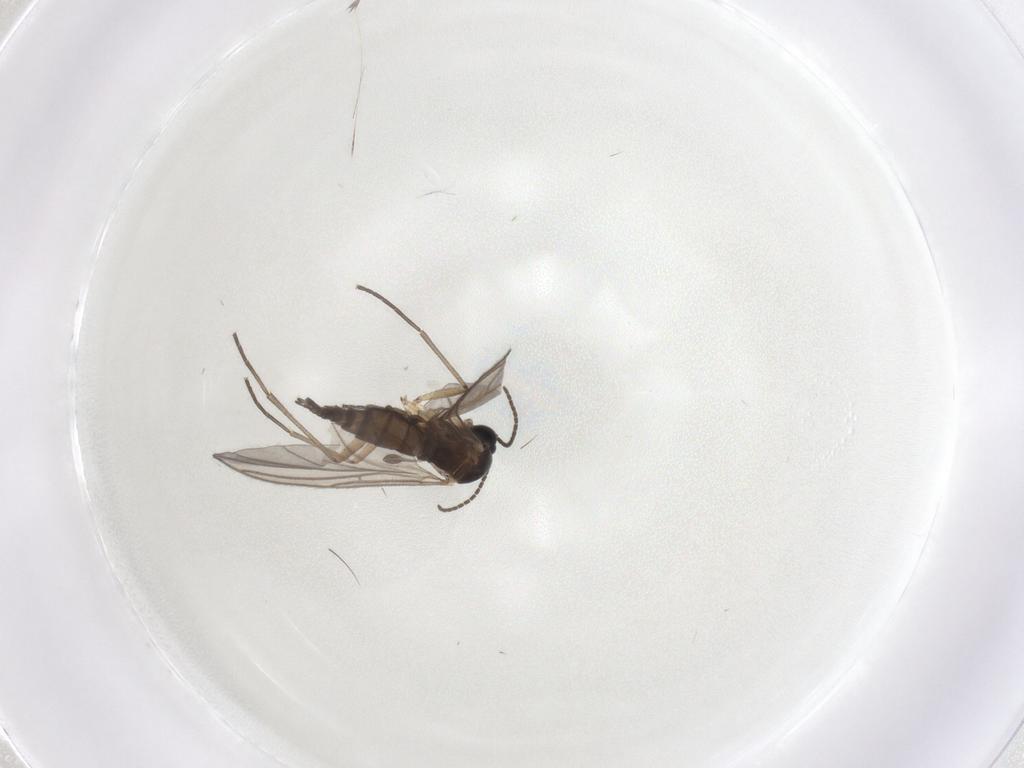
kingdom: Animalia
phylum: Arthropoda
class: Insecta
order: Diptera
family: Sciaridae
